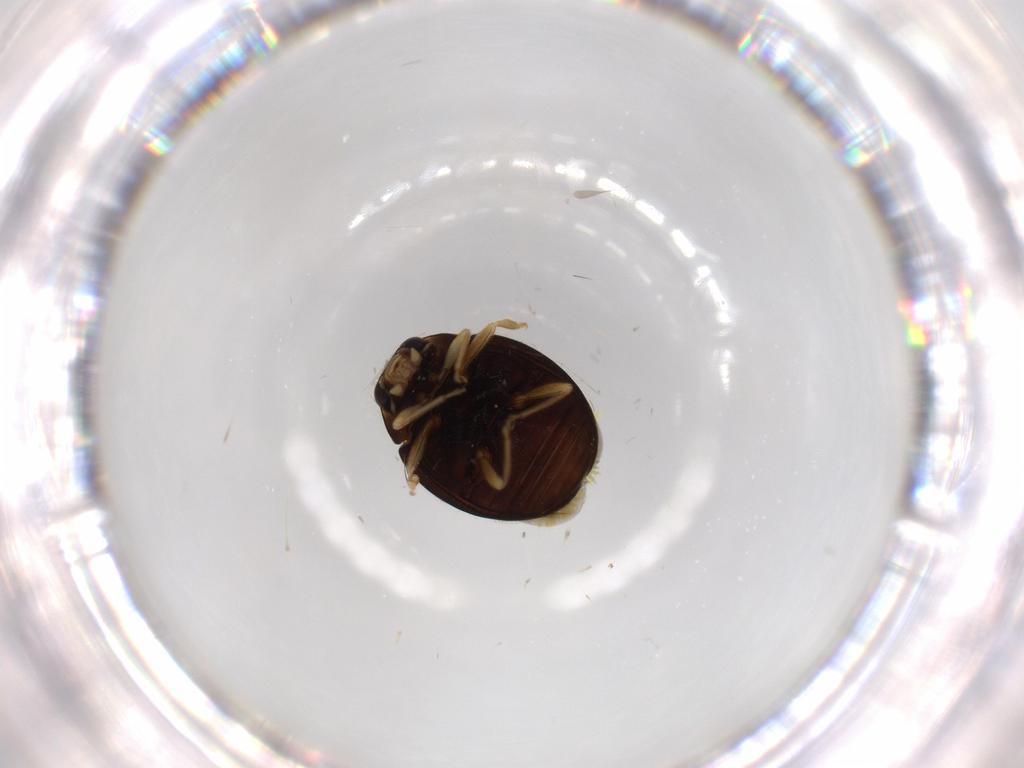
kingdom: Animalia
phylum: Arthropoda
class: Insecta
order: Coleoptera
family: Coccinellidae
